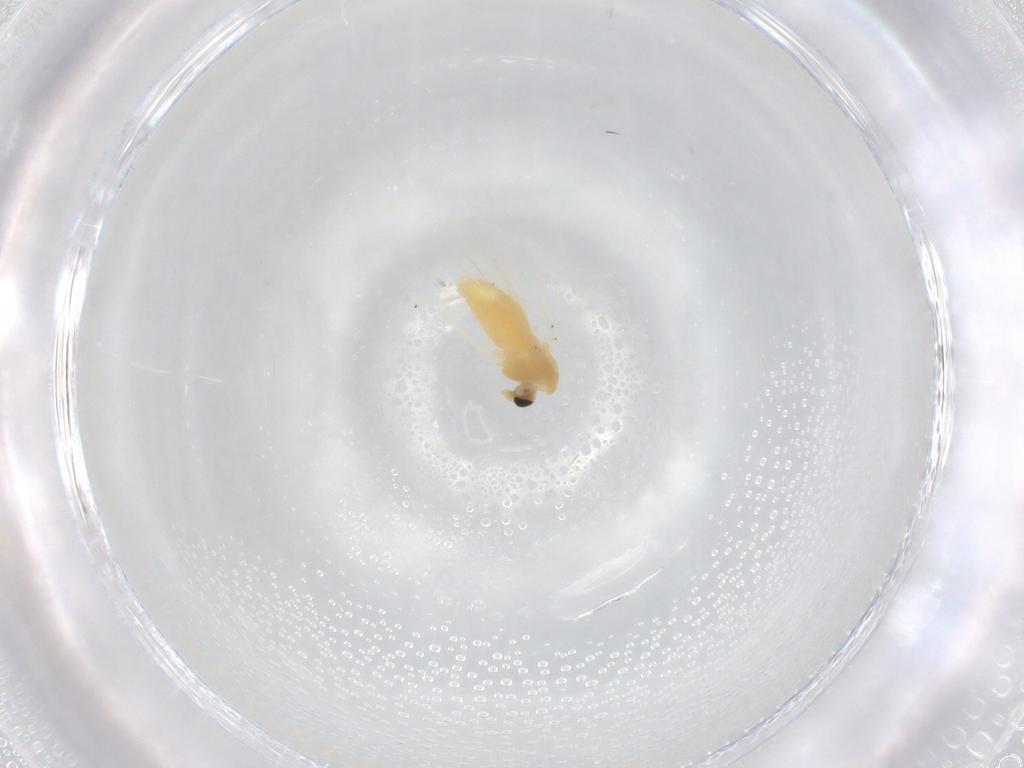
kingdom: Animalia
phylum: Arthropoda
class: Insecta
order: Diptera
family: Chironomidae
